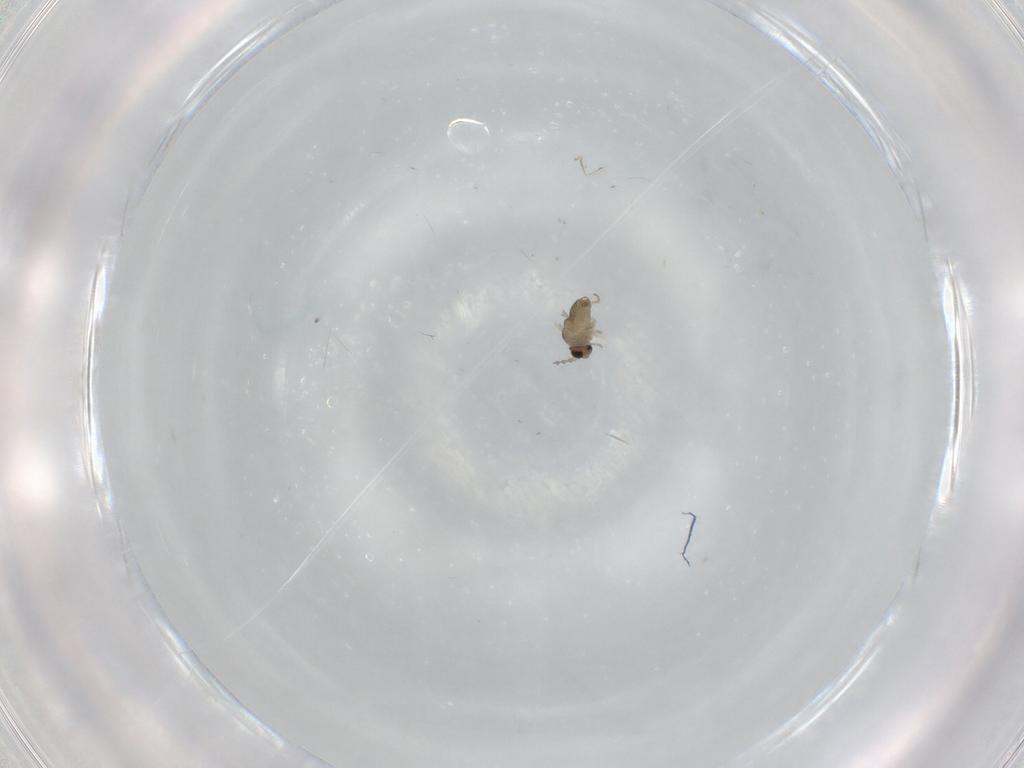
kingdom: Animalia
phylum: Arthropoda
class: Insecta
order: Diptera
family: Cecidomyiidae
